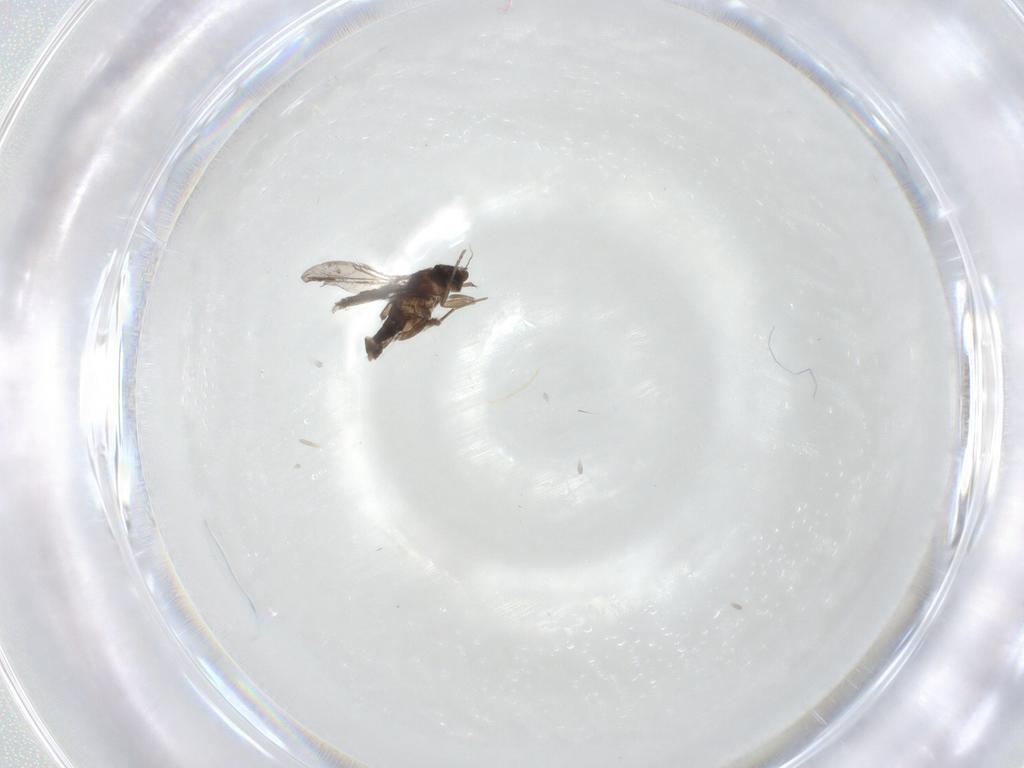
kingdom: Animalia
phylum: Arthropoda
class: Insecta
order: Diptera
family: Phoridae
